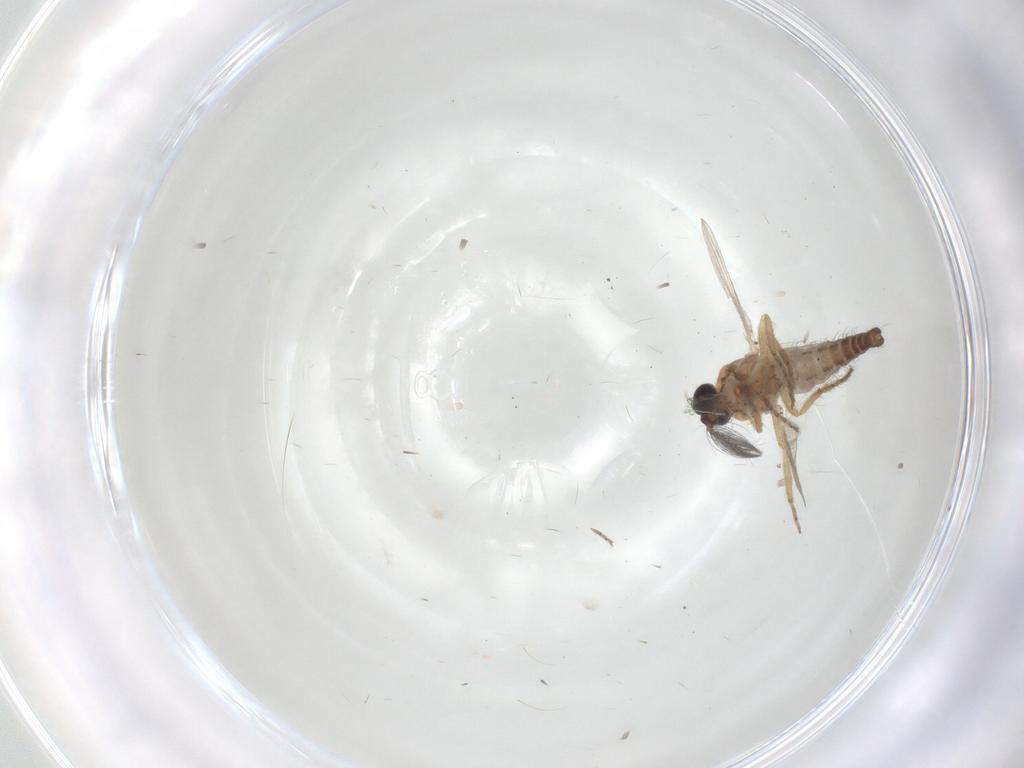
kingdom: Animalia
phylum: Arthropoda
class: Insecta
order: Diptera
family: Ceratopogonidae
